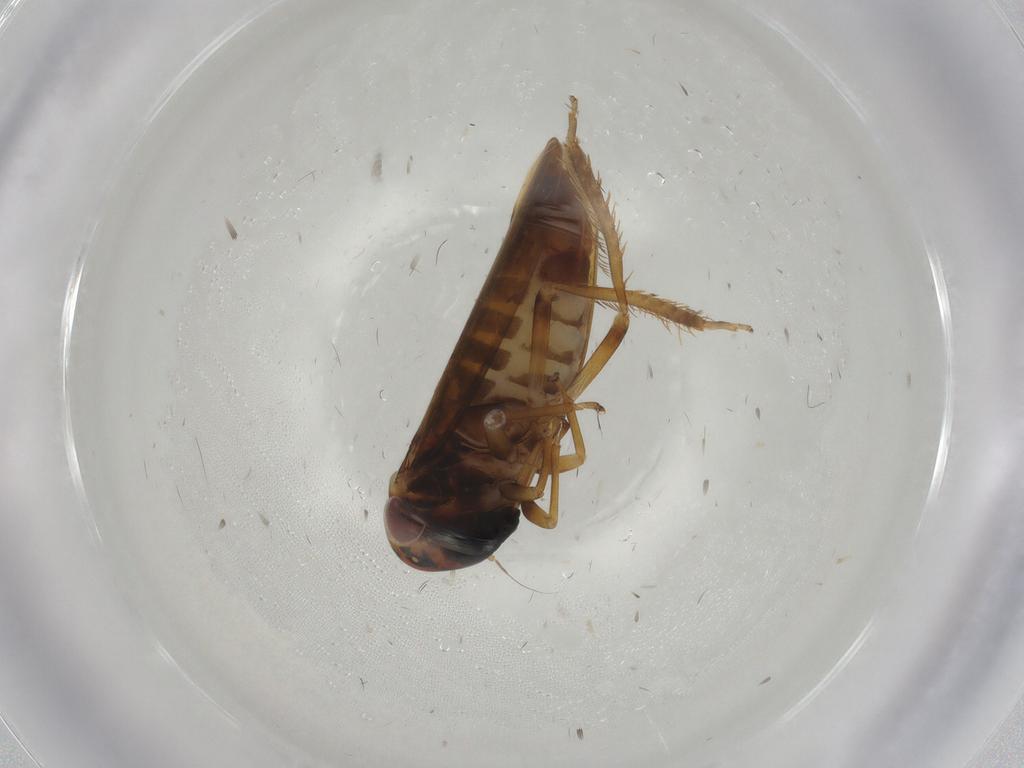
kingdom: Animalia
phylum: Arthropoda
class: Insecta
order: Hemiptera
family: Cicadellidae
